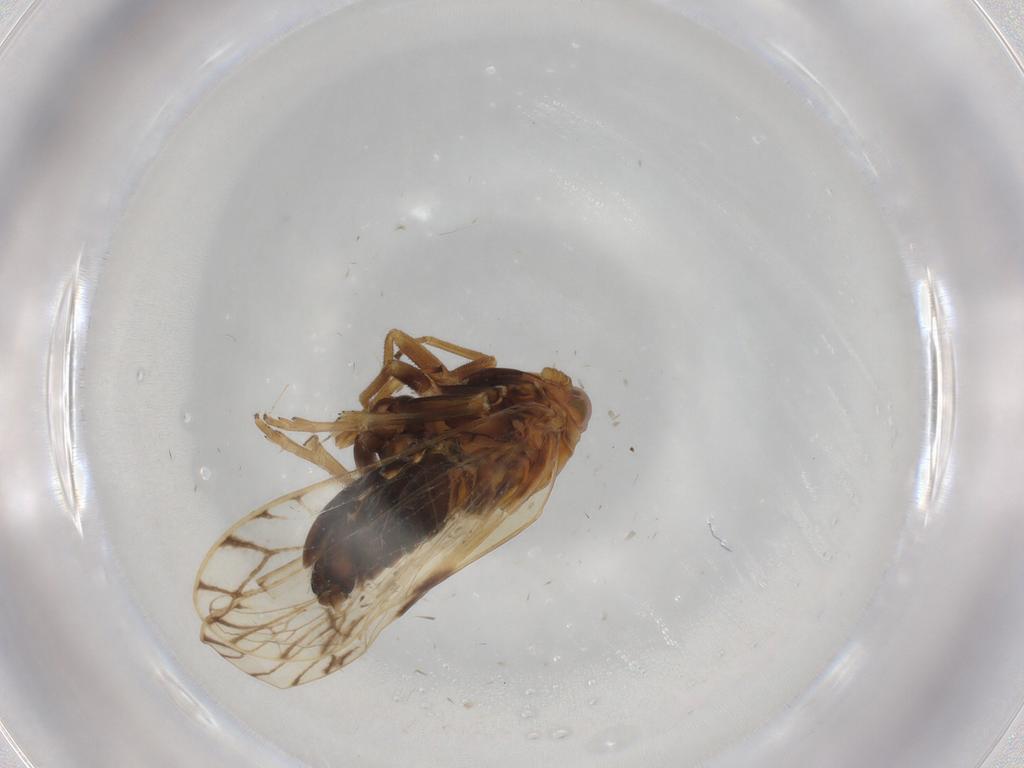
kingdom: Animalia
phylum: Arthropoda
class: Insecta
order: Hemiptera
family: Delphacidae
